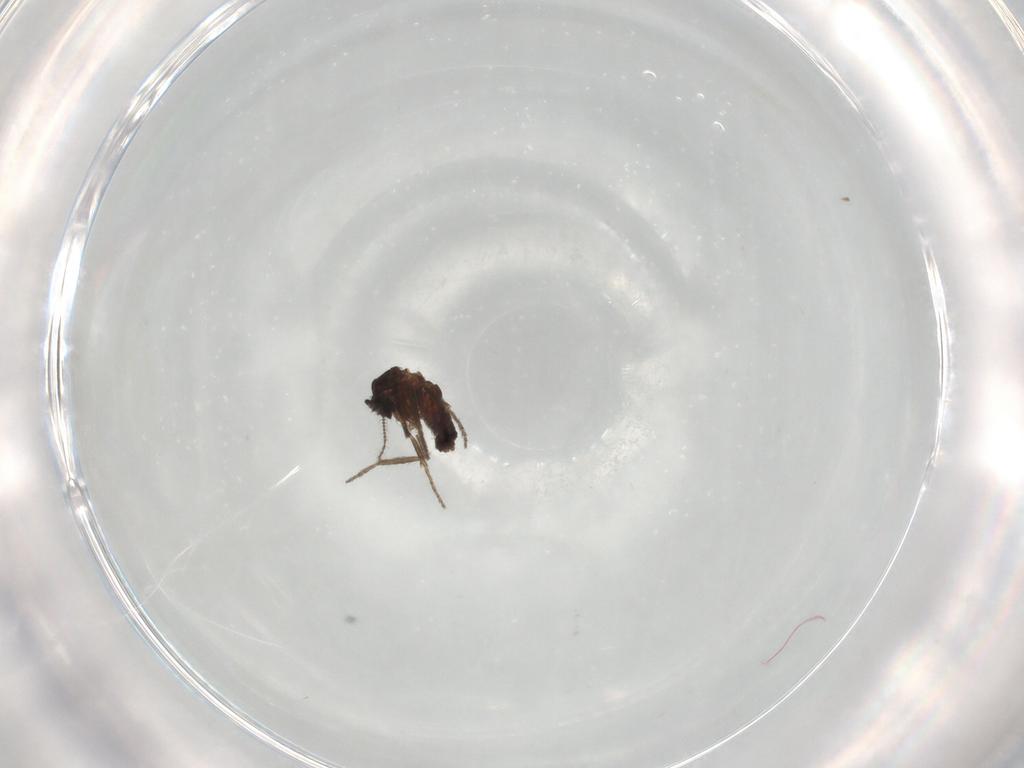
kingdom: Animalia
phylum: Arthropoda
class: Insecta
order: Diptera
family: Ceratopogonidae
